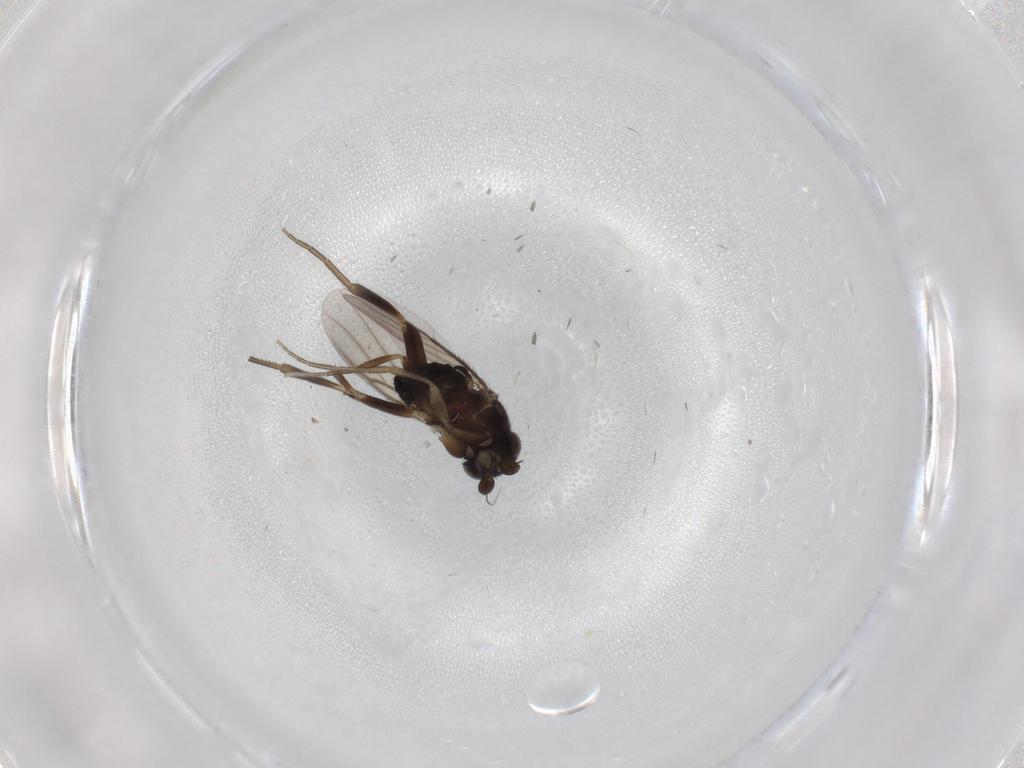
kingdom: Animalia
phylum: Arthropoda
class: Insecta
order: Diptera
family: Phoridae
